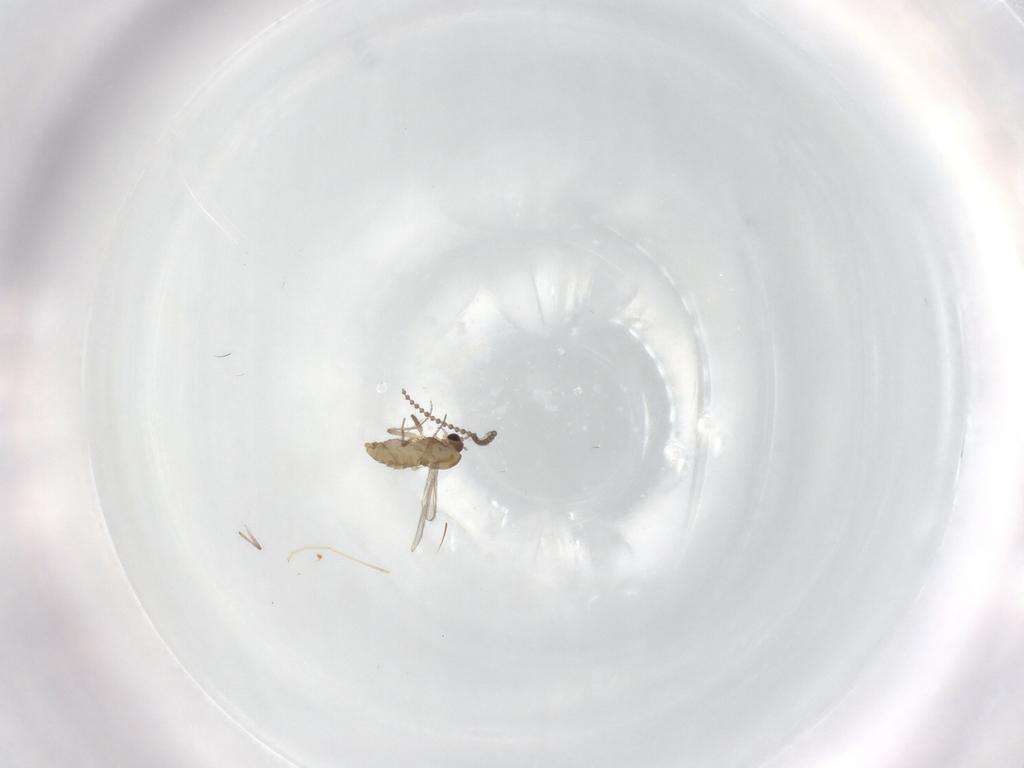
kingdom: Animalia
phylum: Arthropoda
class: Insecta
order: Diptera
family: Chironomidae
